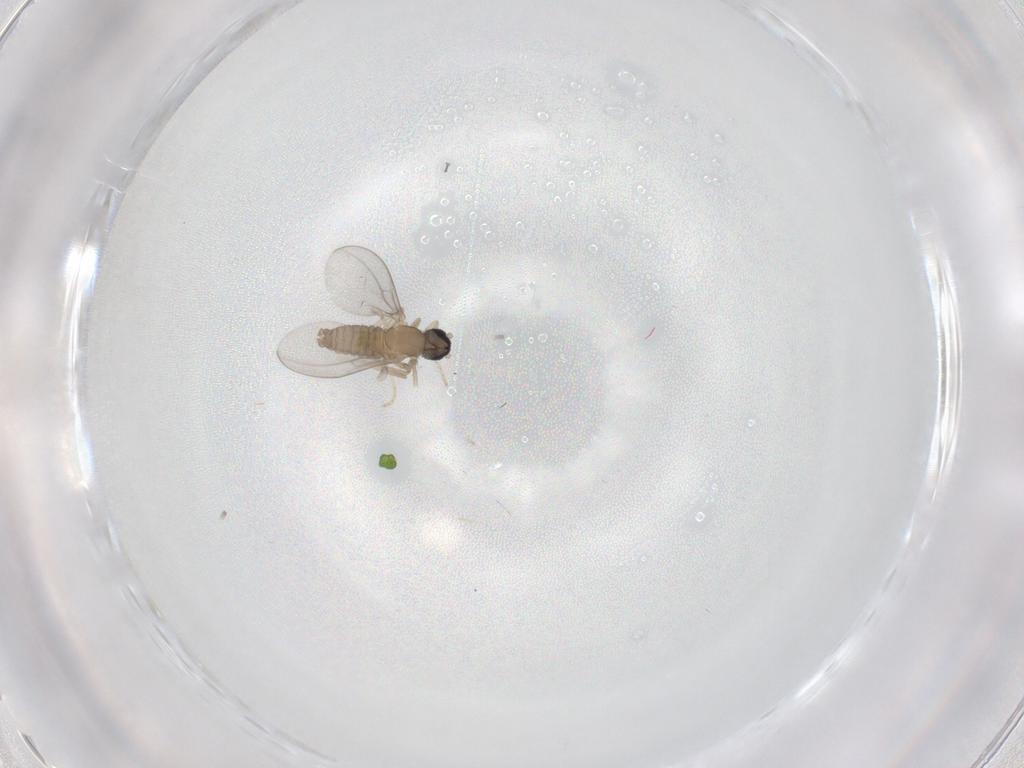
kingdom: Animalia
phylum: Arthropoda
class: Insecta
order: Diptera
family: Cecidomyiidae
